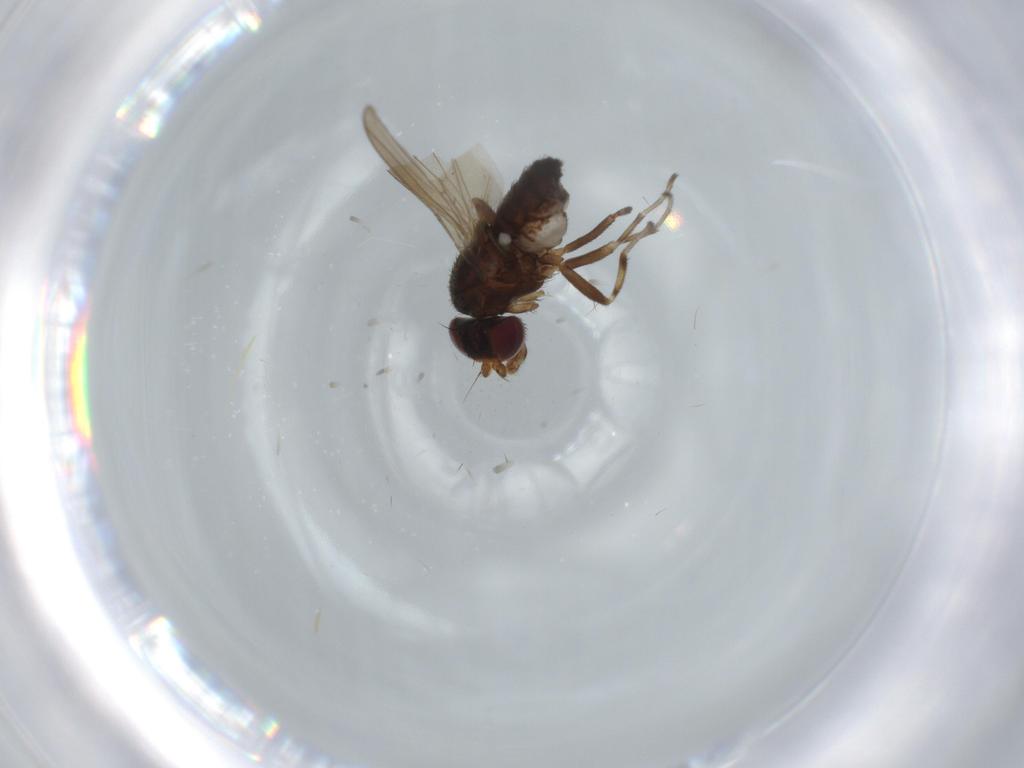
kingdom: Animalia
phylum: Arthropoda
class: Insecta
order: Diptera
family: Heleomyzidae
